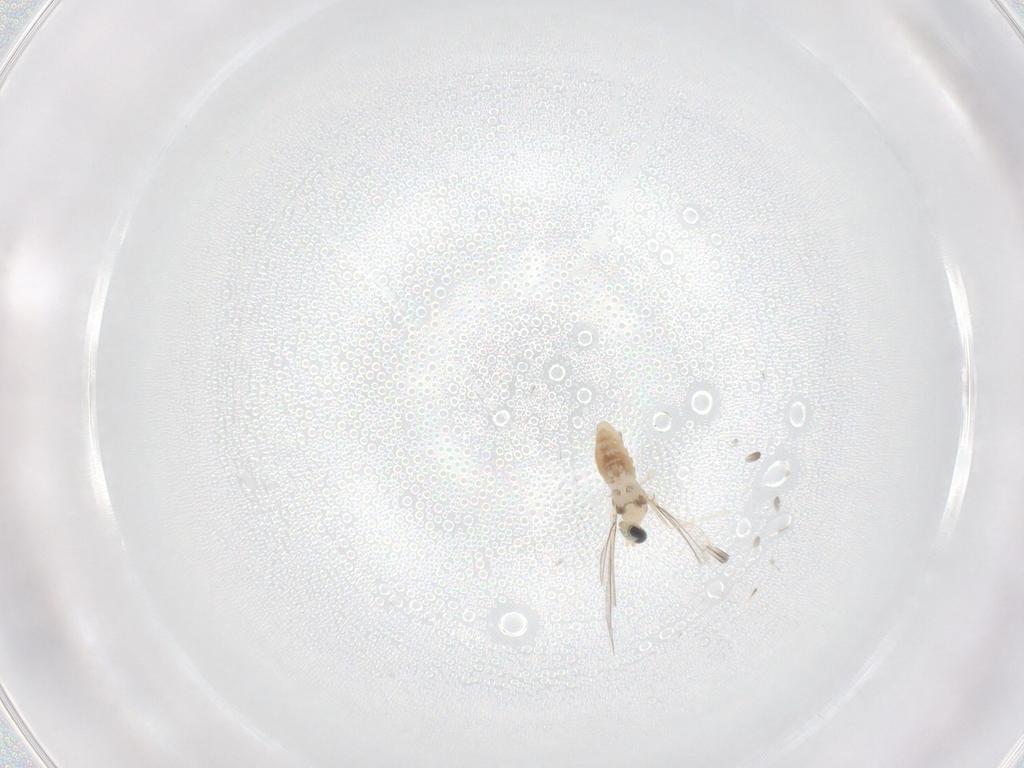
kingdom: Animalia
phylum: Arthropoda
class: Insecta
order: Diptera
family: Cecidomyiidae
